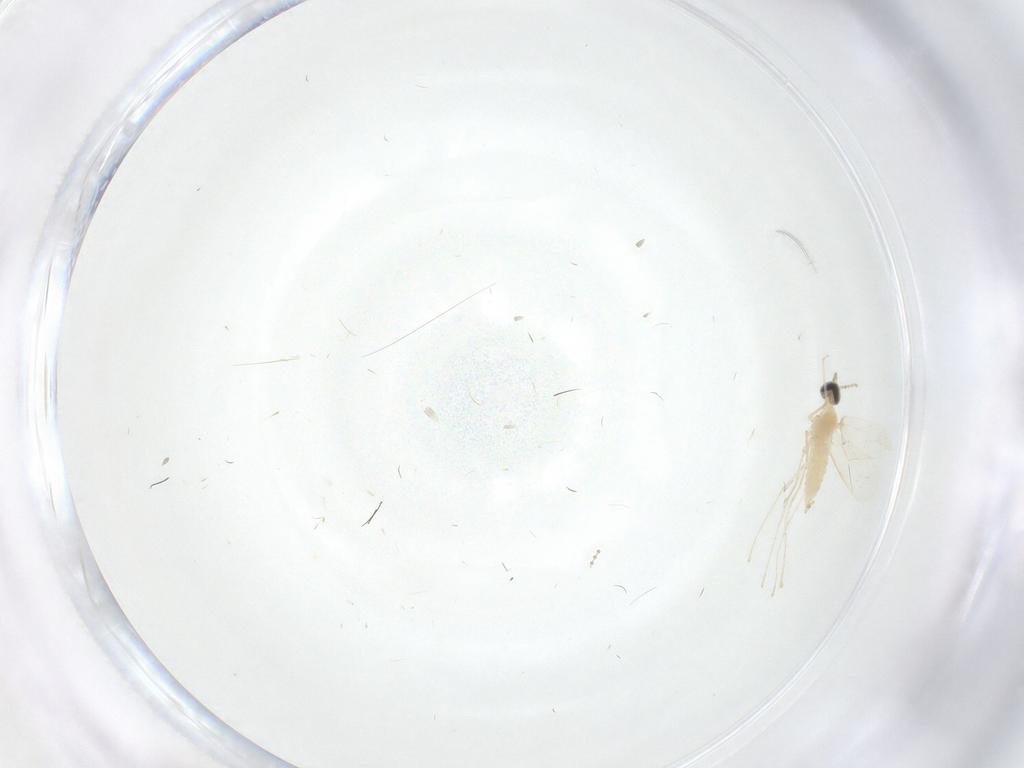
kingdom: Animalia
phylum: Arthropoda
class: Insecta
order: Diptera
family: Cecidomyiidae
